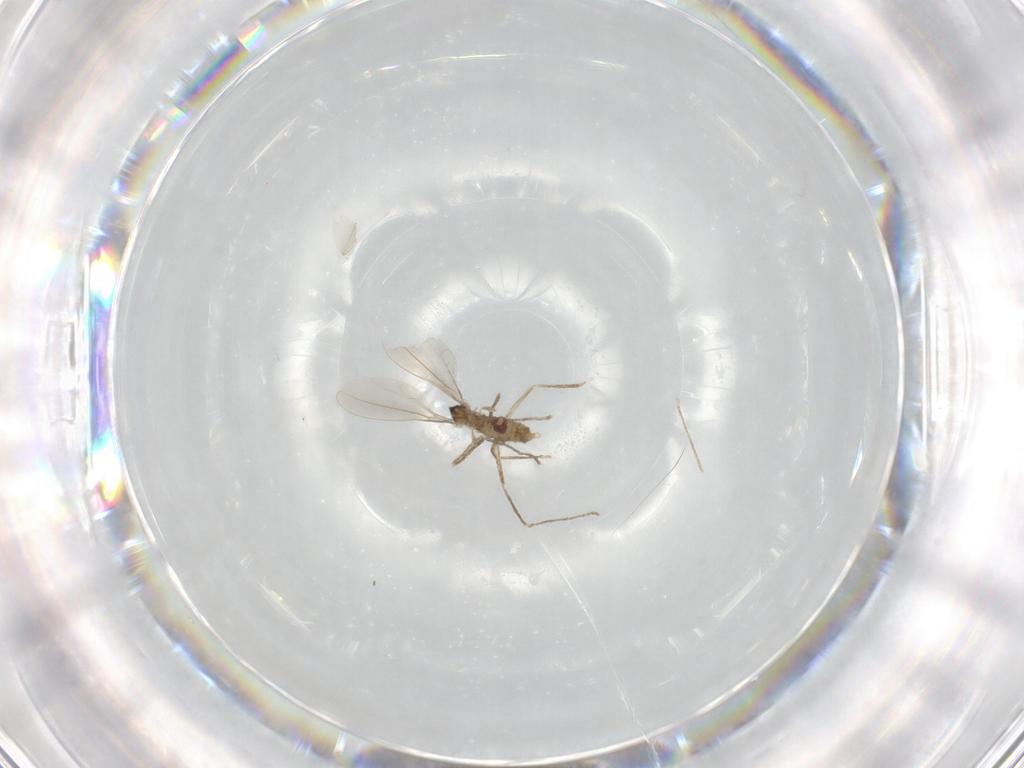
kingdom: Animalia
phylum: Arthropoda
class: Insecta
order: Diptera
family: Cecidomyiidae
